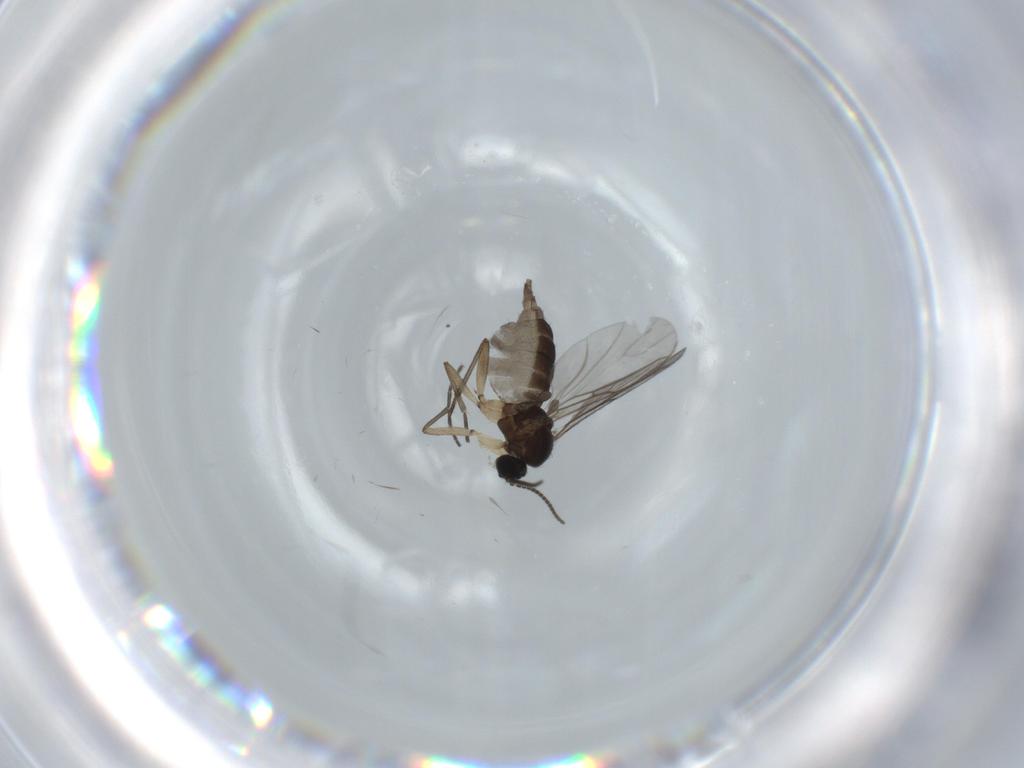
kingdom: Animalia
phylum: Arthropoda
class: Insecta
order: Diptera
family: Sciaridae
